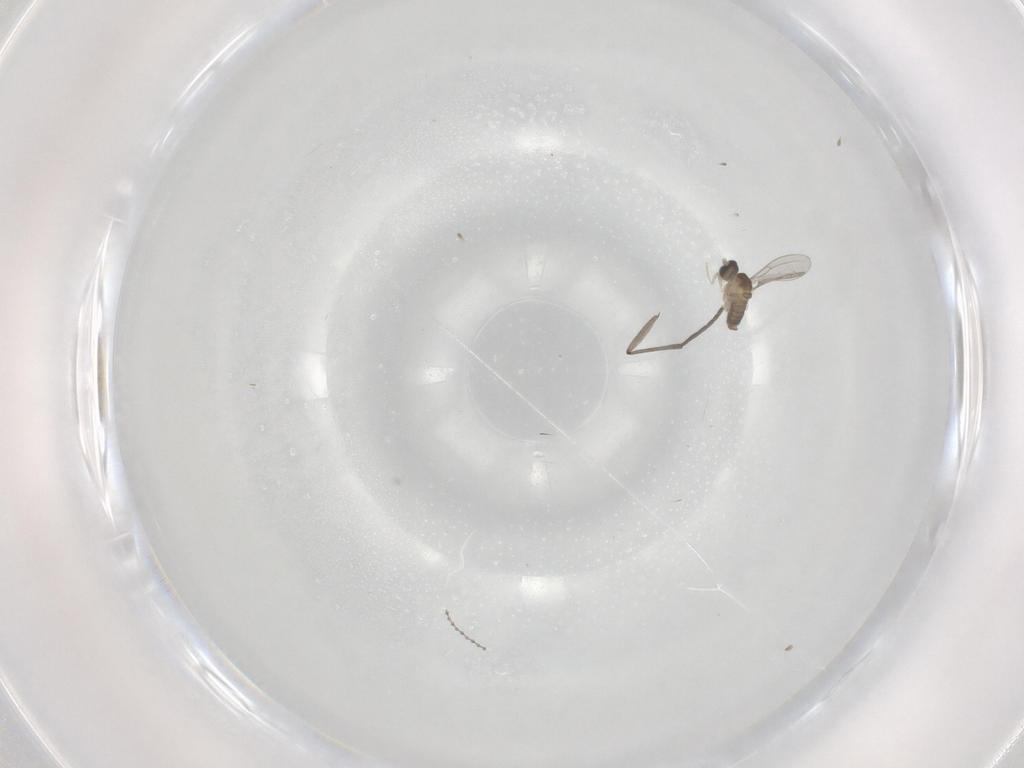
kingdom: Animalia
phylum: Arthropoda
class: Insecta
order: Diptera
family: Cecidomyiidae
